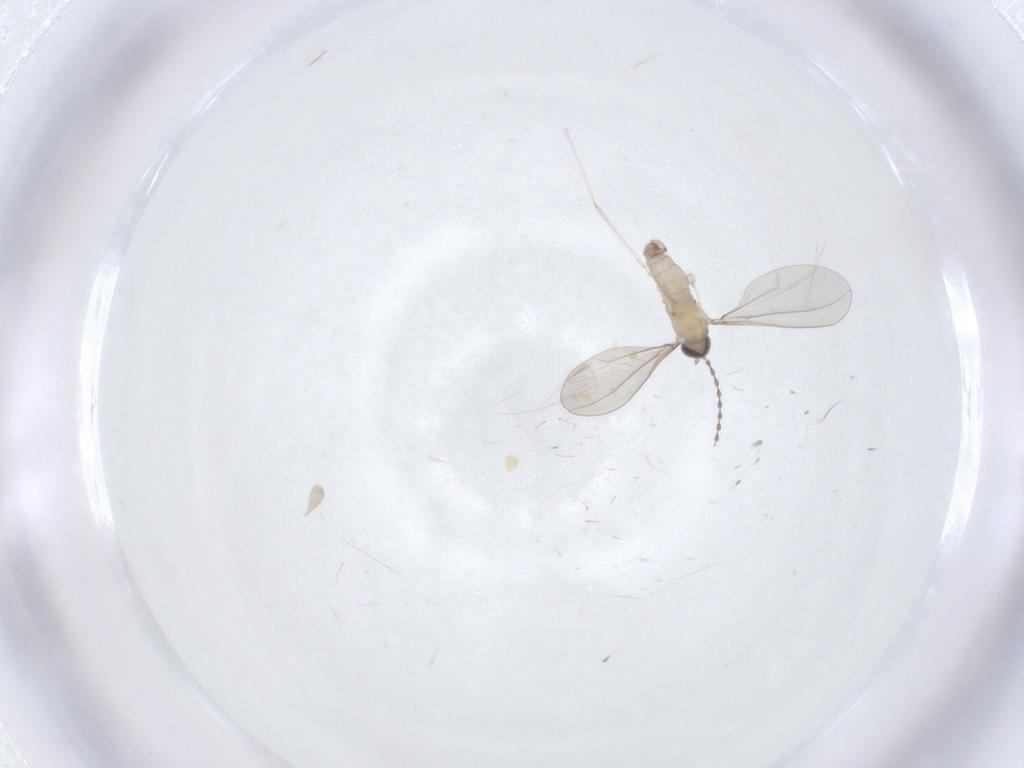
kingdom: Animalia
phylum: Arthropoda
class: Insecta
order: Diptera
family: Cecidomyiidae
